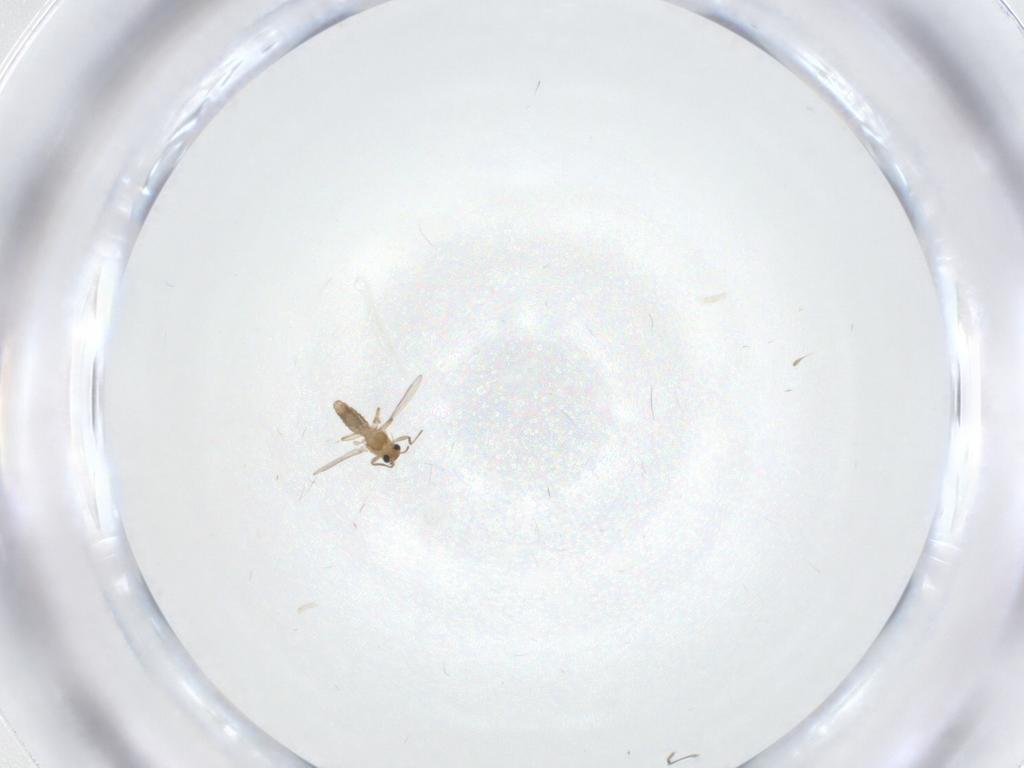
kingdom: Animalia
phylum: Arthropoda
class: Insecta
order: Diptera
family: Chironomidae
